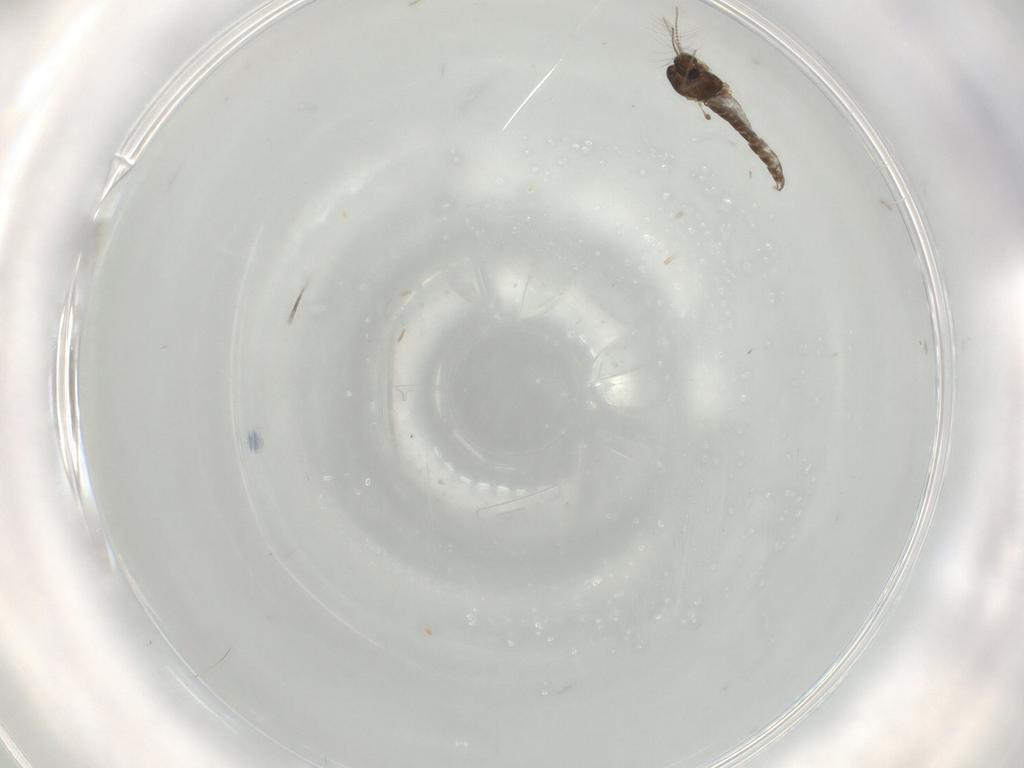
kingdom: Animalia
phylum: Arthropoda
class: Insecta
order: Diptera
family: Chironomidae
